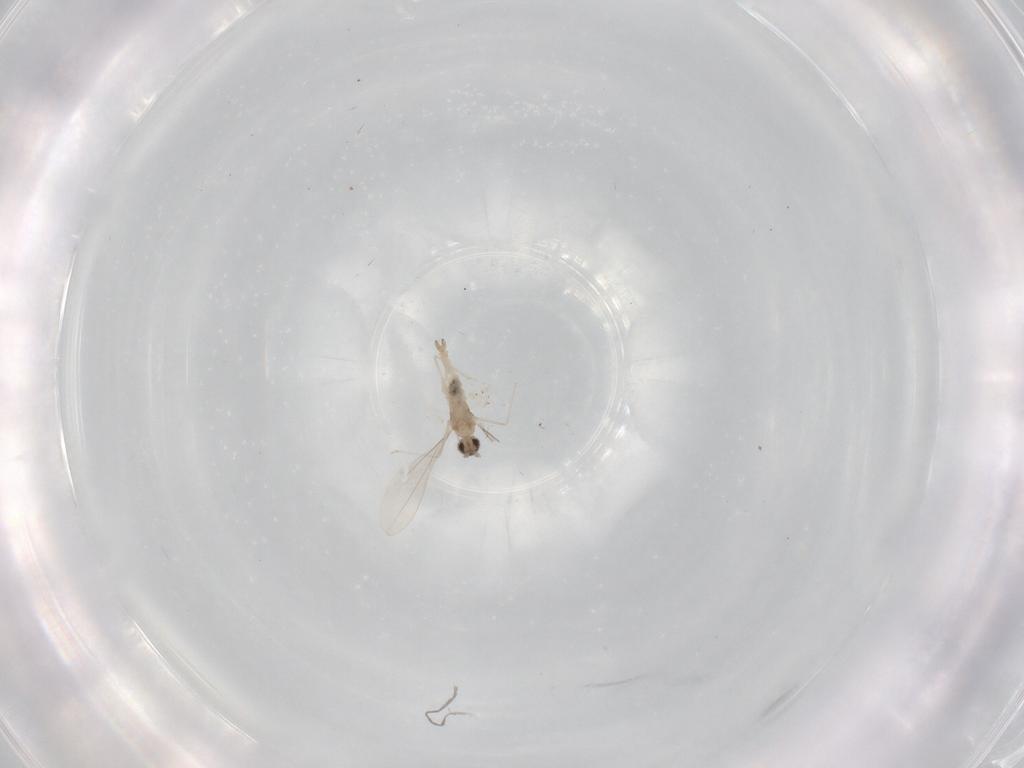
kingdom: Animalia
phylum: Arthropoda
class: Insecta
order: Diptera
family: Cecidomyiidae
